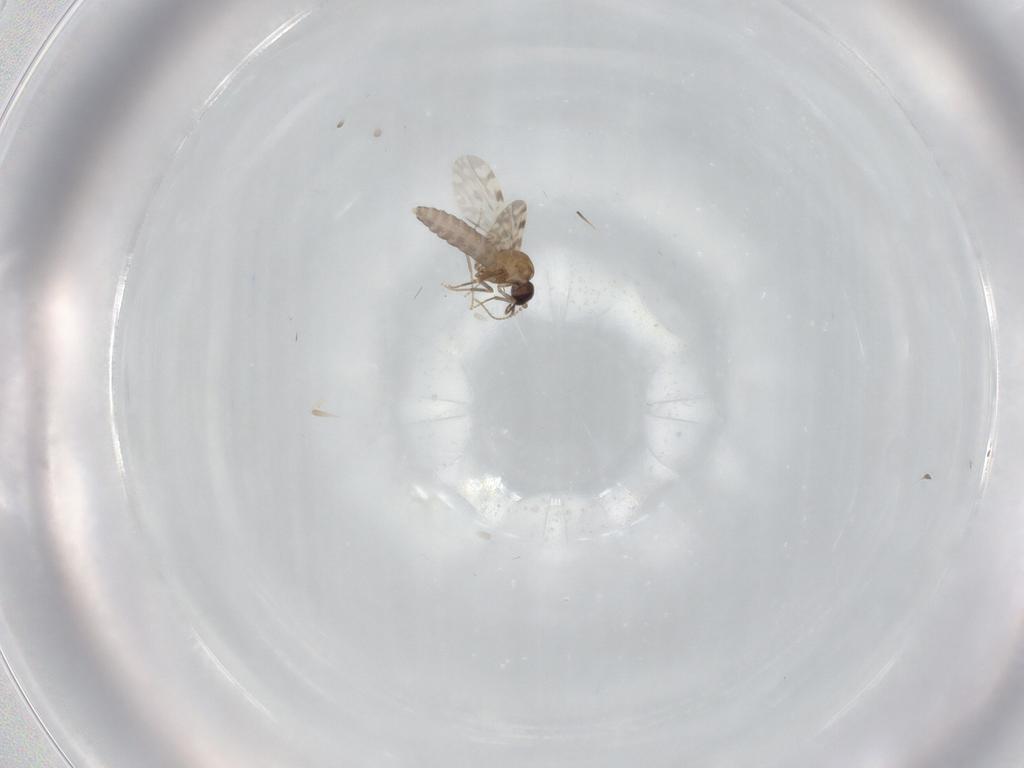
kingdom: Animalia
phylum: Arthropoda
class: Insecta
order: Diptera
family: Ceratopogonidae
